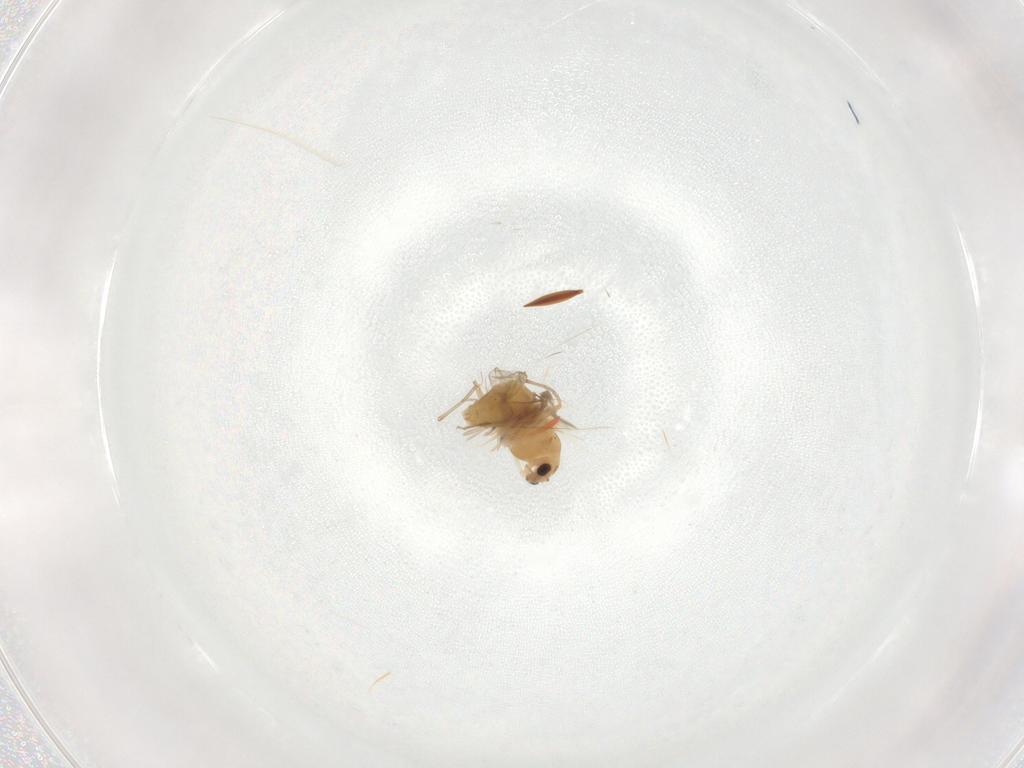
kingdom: Animalia
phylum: Arthropoda
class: Insecta
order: Diptera
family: Chironomidae
